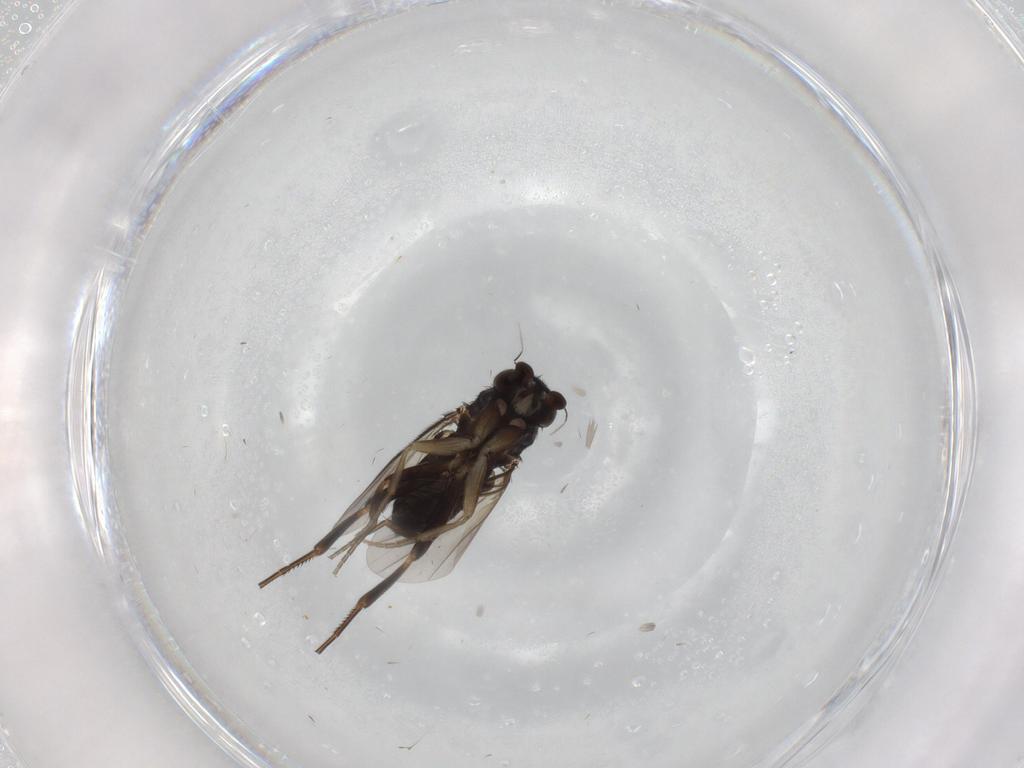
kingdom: Animalia
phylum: Arthropoda
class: Insecta
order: Diptera
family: Phoridae
